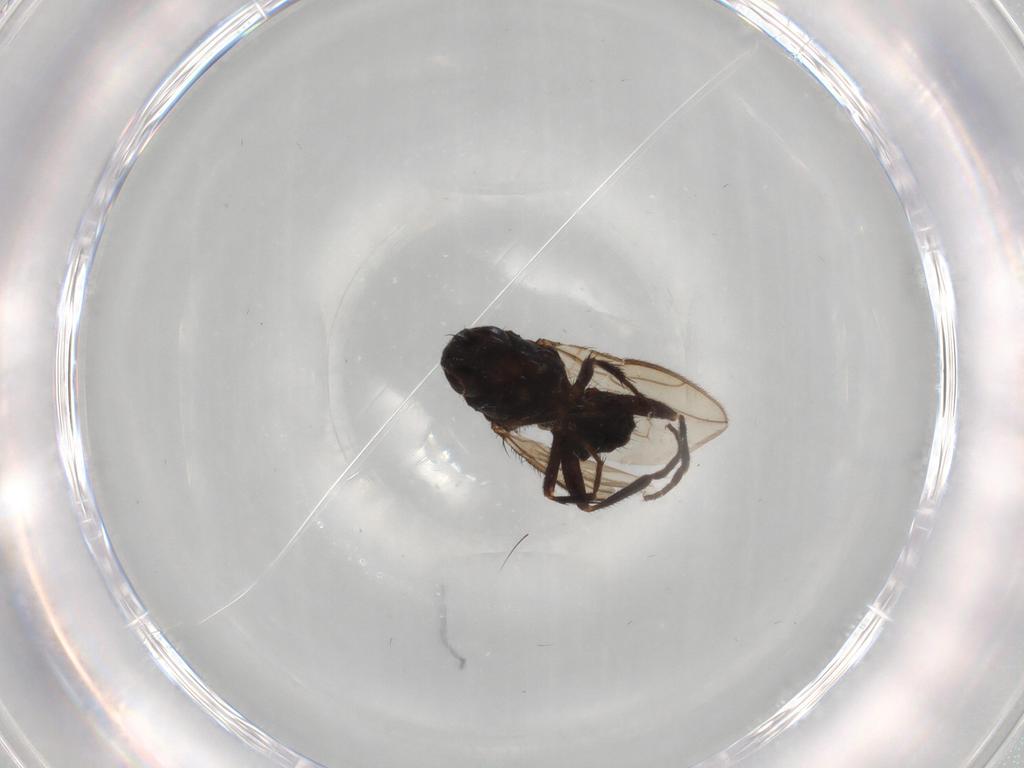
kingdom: Animalia
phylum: Arthropoda
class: Insecta
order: Diptera
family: Sphaeroceridae
